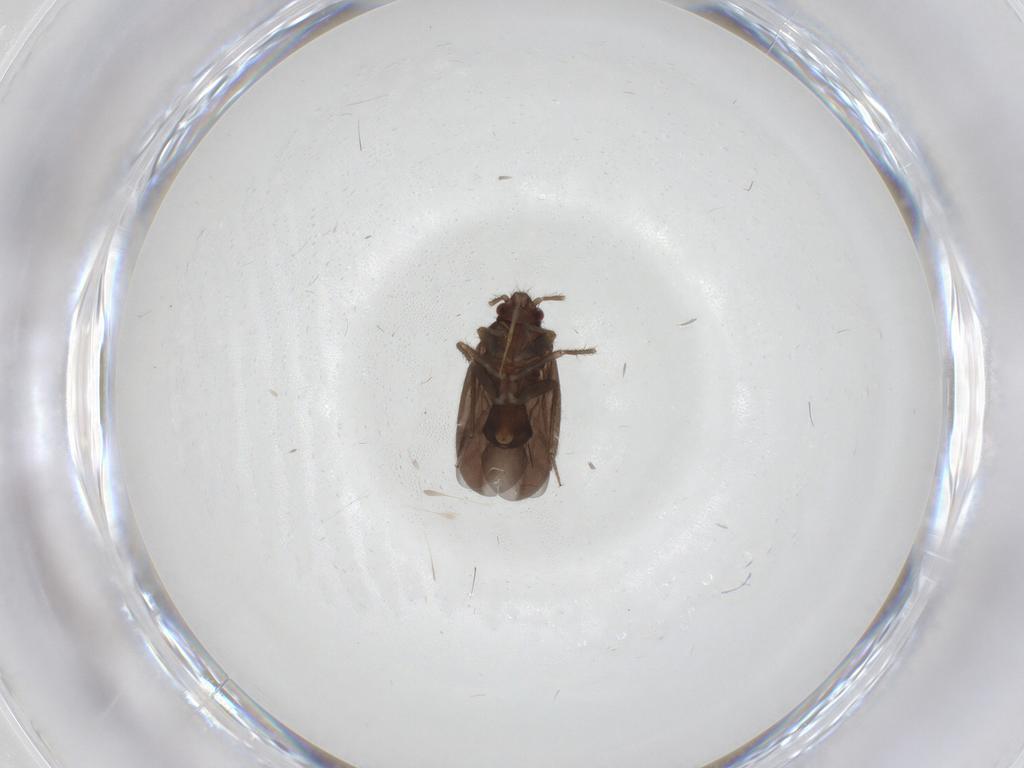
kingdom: Animalia
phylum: Arthropoda
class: Insecta
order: Hemiptera
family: Ceratocombidae
